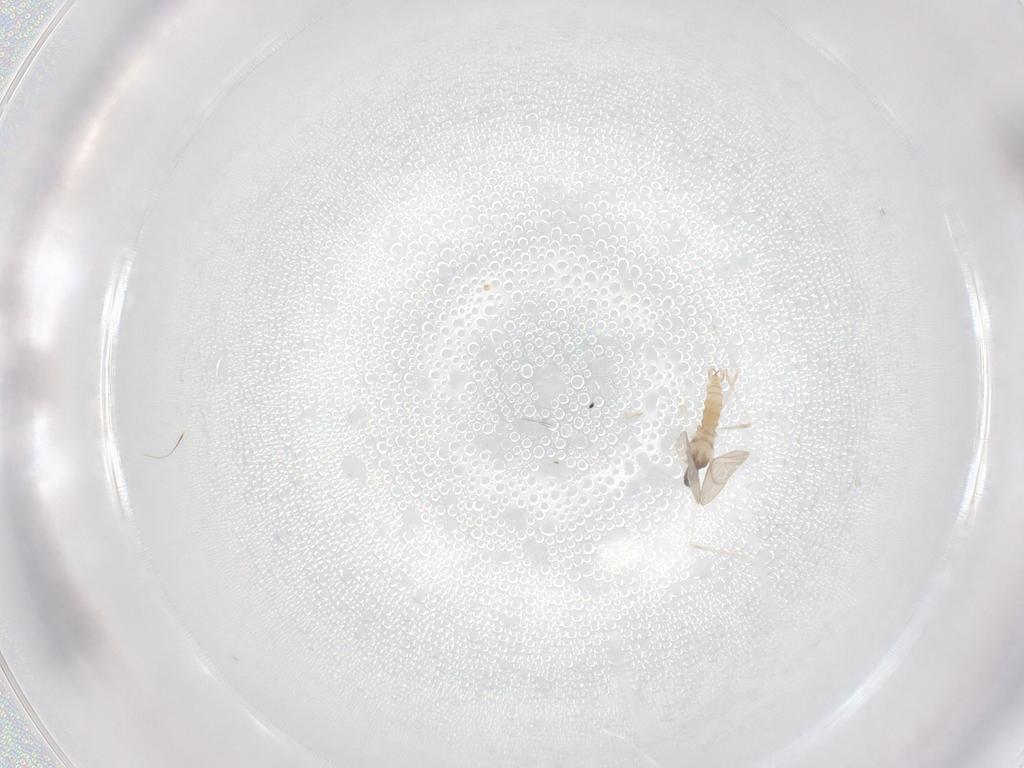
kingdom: Animalia
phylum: Arthropoda
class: Insecta
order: Diptera
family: Cecidomyiidae
